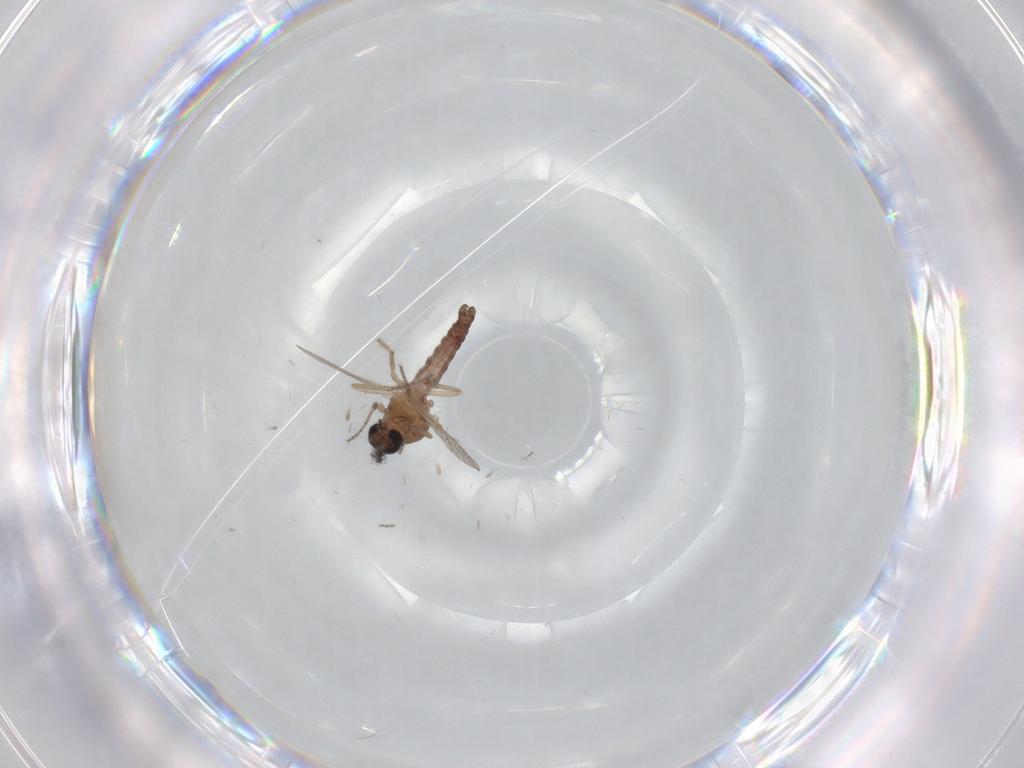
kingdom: Animalia
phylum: Arthropoda
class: Insecta
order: Diptera
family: Ceratopogonidae
